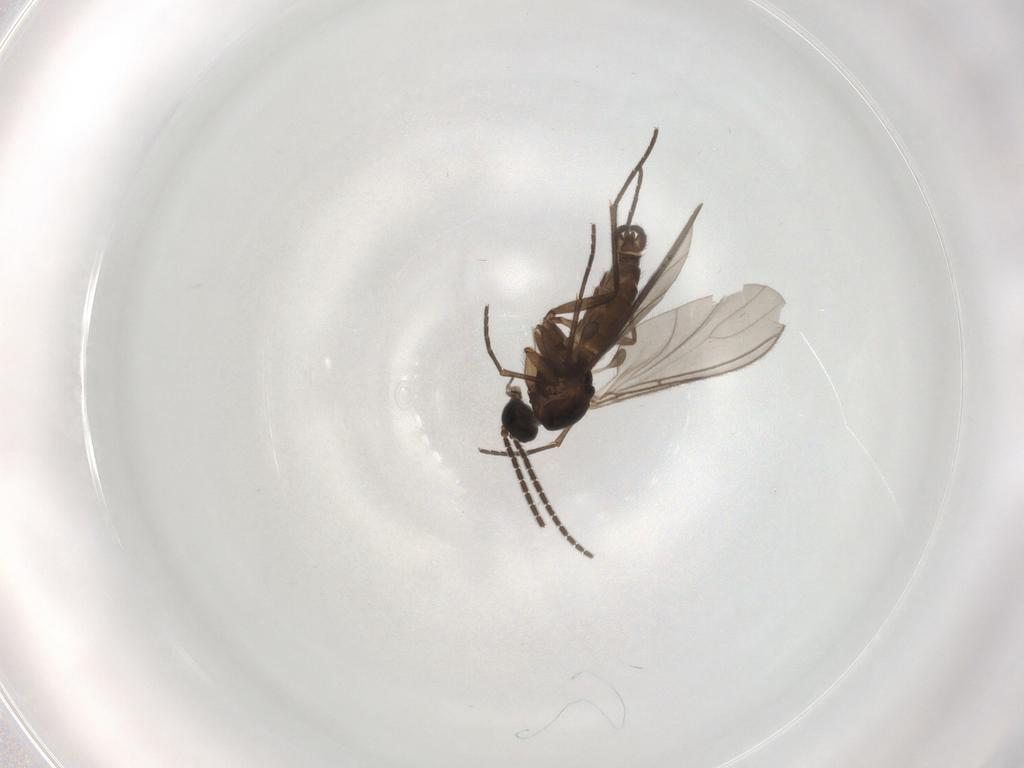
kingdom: Animalia
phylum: Arthropoda
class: Insecta
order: Diptera
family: Sciaridae
